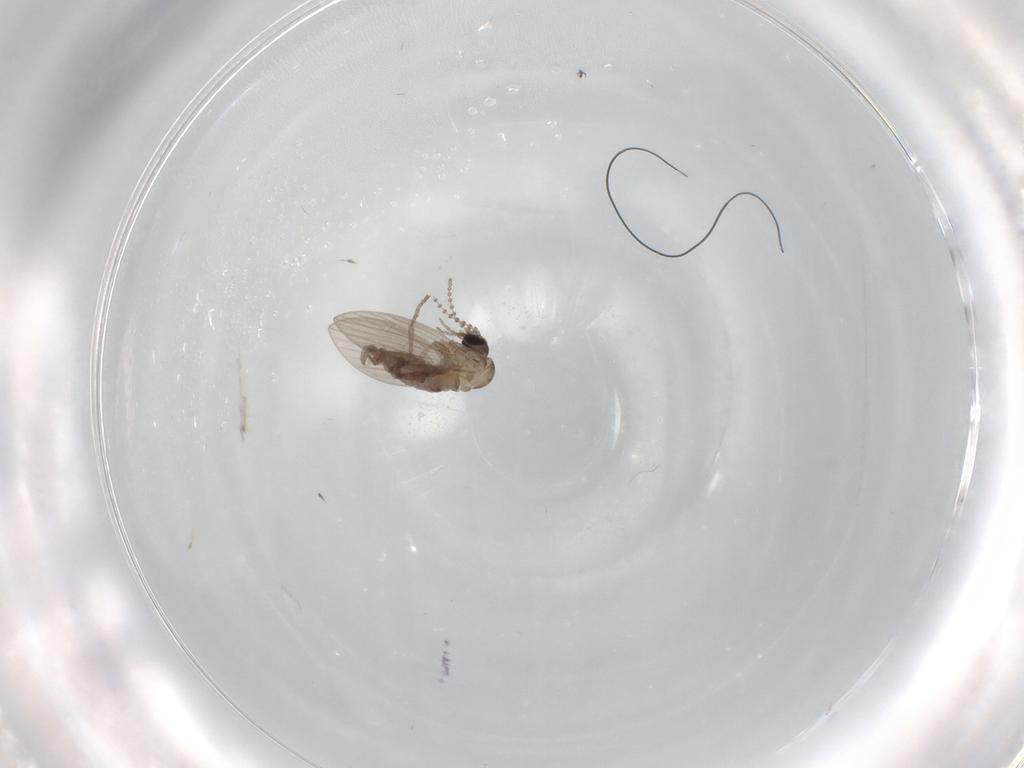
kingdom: Animalia
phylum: Arthropoda
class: Insecta
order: Diptera
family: Psychodidae
